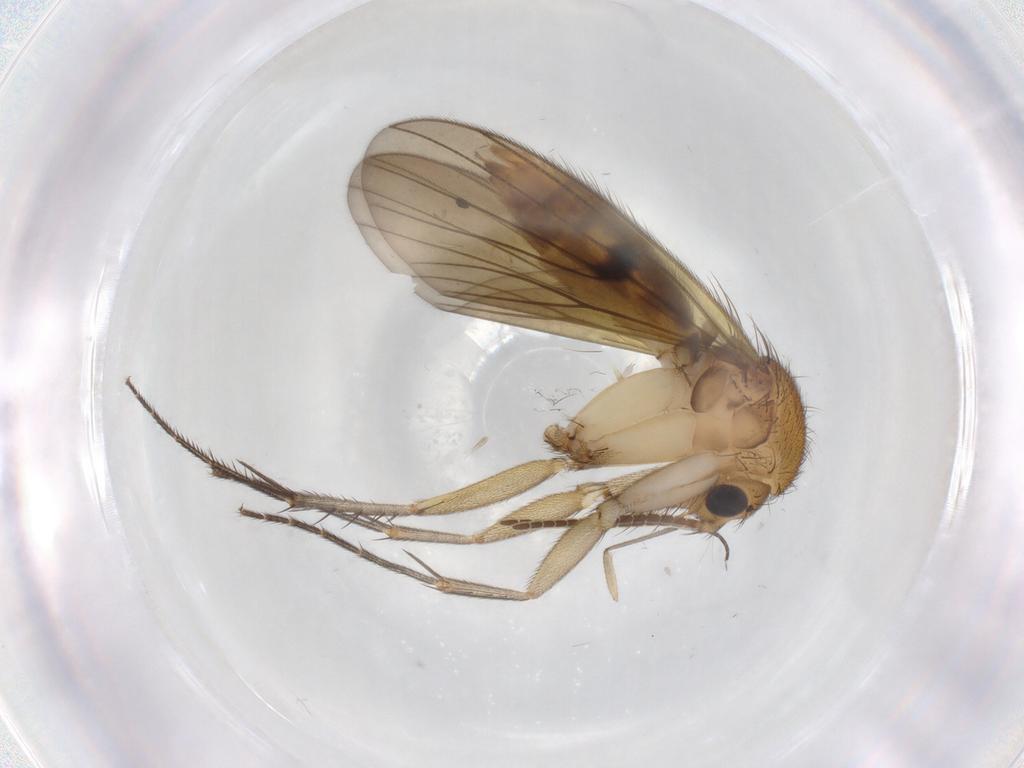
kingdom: Animalia
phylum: Arthropoda
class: Insecta
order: Diptera
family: Mycetophilidae
